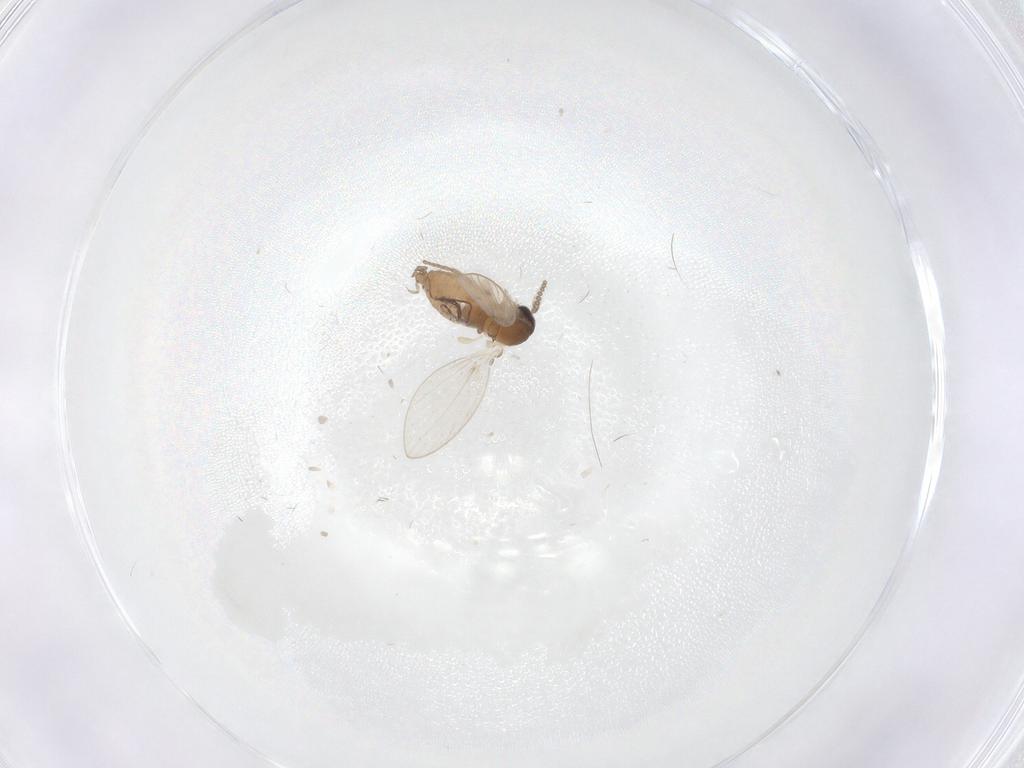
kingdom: Animalia
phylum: Arthropoda
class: Insecta
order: Diptera
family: Psychodidae
